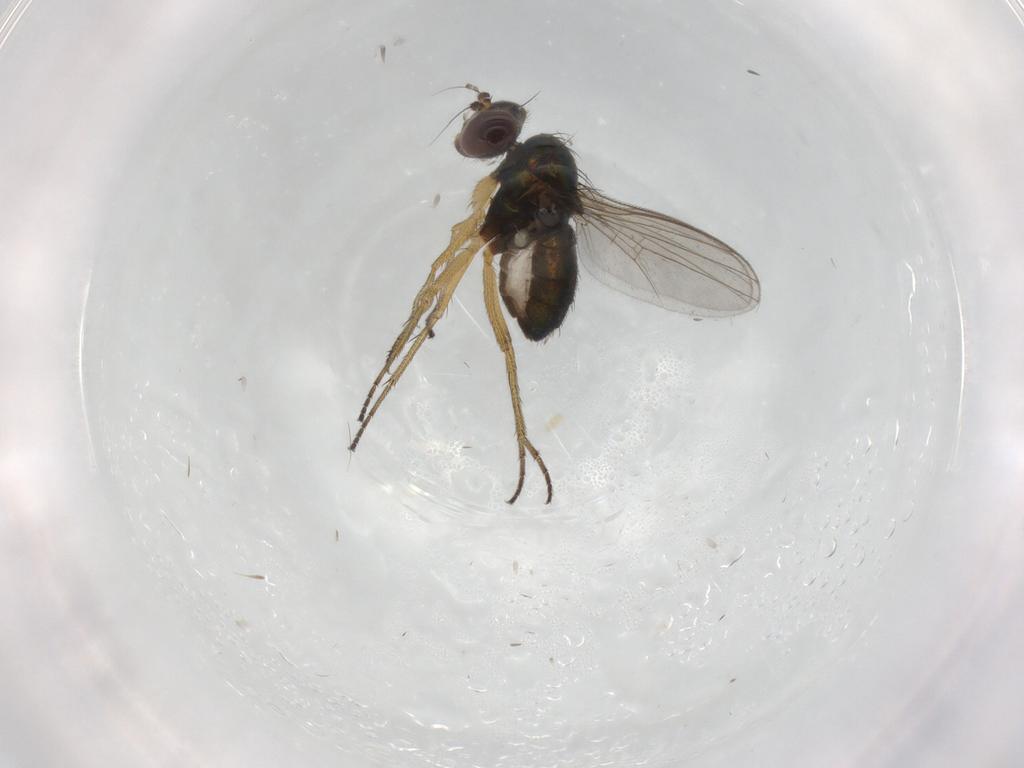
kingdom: Animalia
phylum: Arthropoda
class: Insecta
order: Diptera
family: Dolichopodidae
